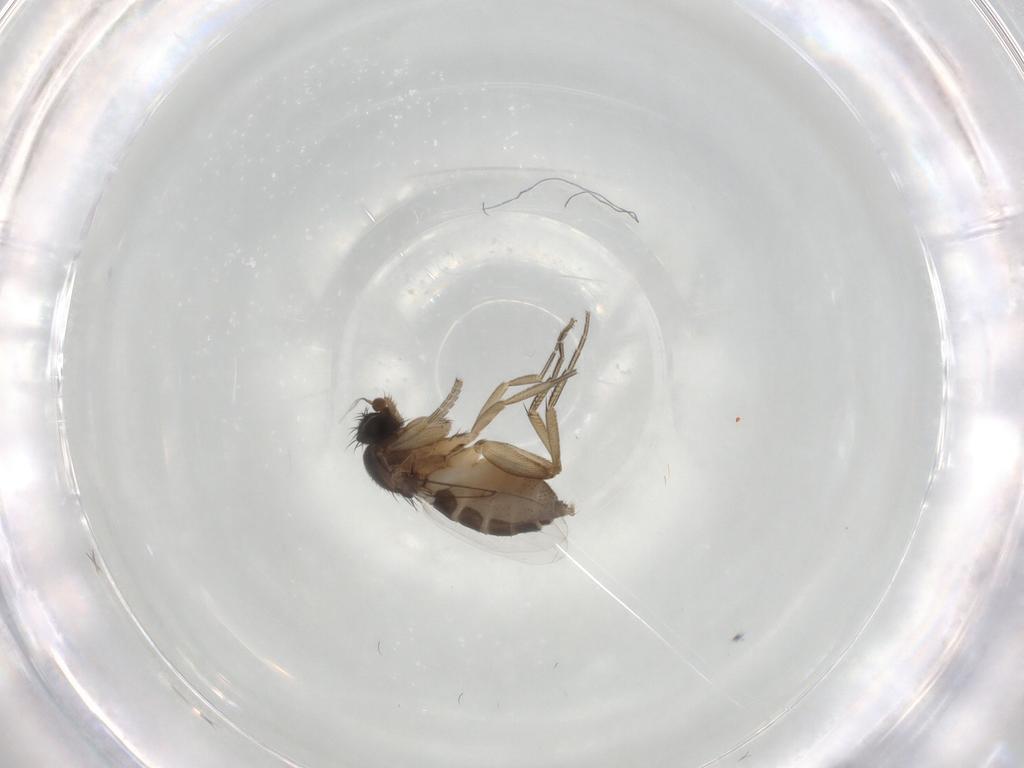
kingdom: Animalia
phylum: Arthropoda
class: Insecta
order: Diptera
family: Phoridae
